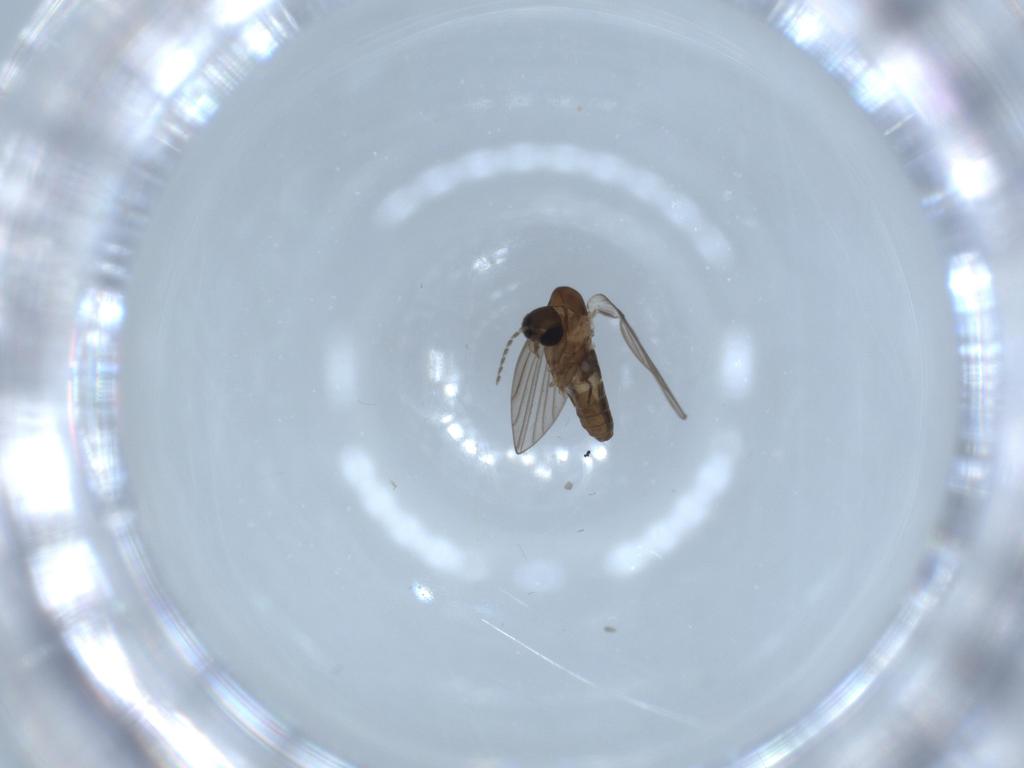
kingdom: Animalia
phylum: Arthropoda
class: Insecta
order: Diptera
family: Psychodidae
